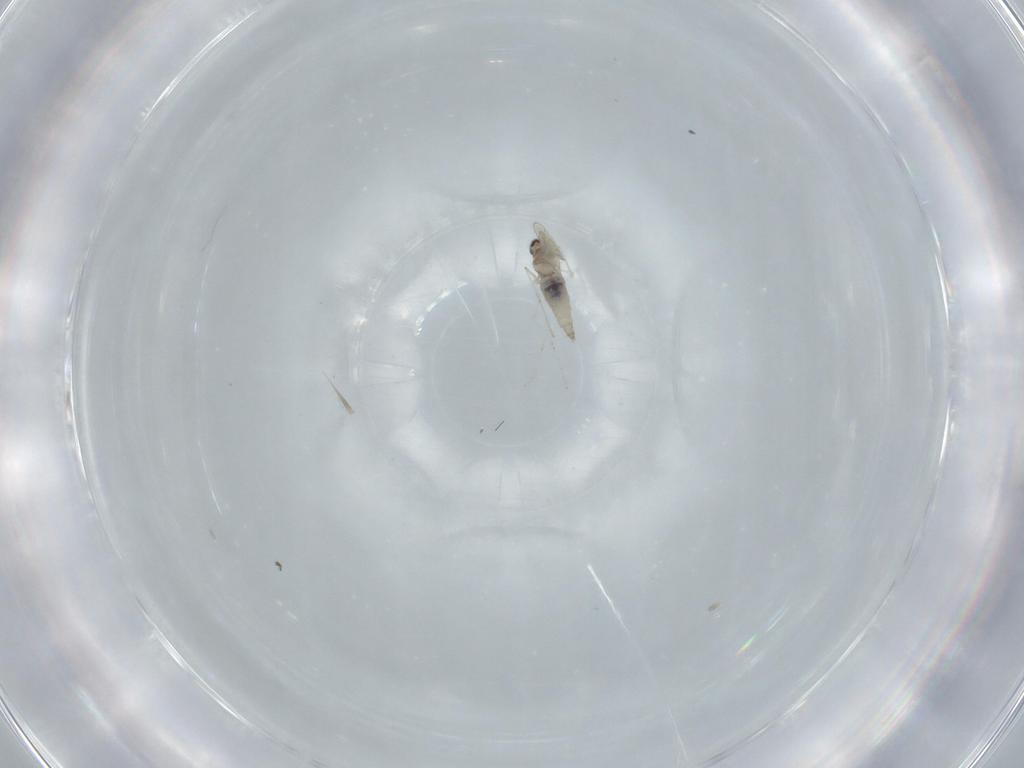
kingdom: Animalia
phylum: Arthropoda
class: Insecta
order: Diptera
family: Cecidomyiidae
